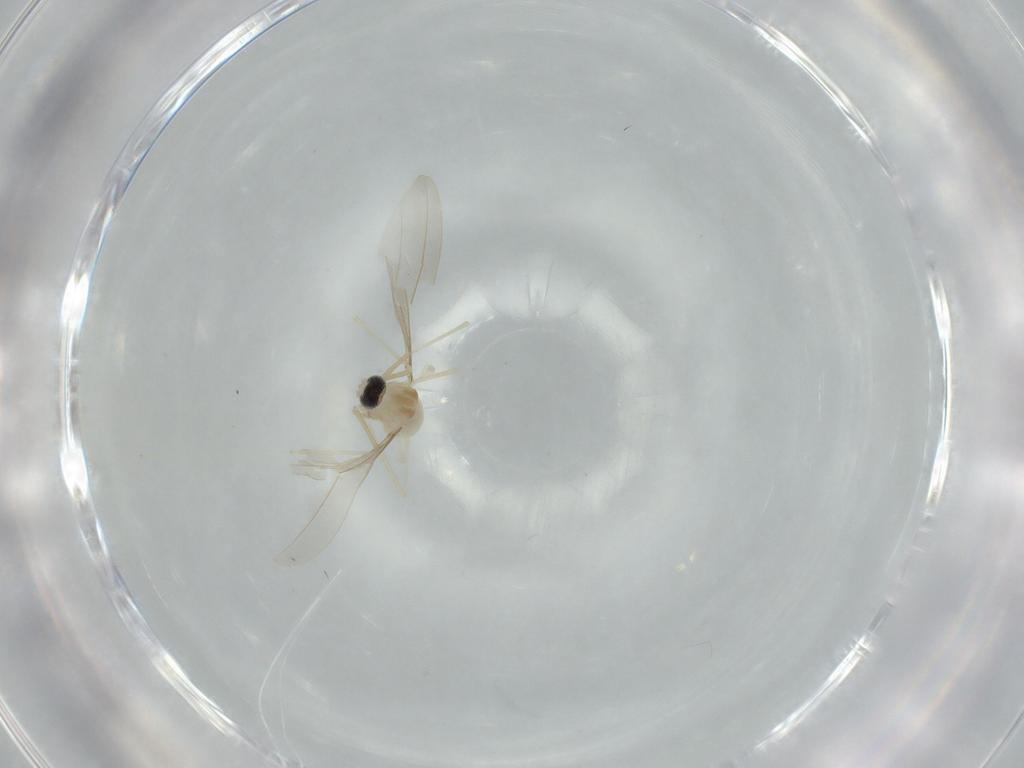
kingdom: Animalia
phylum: Arthropoda
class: Insecta
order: Diptera
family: Cecidomyiidae
